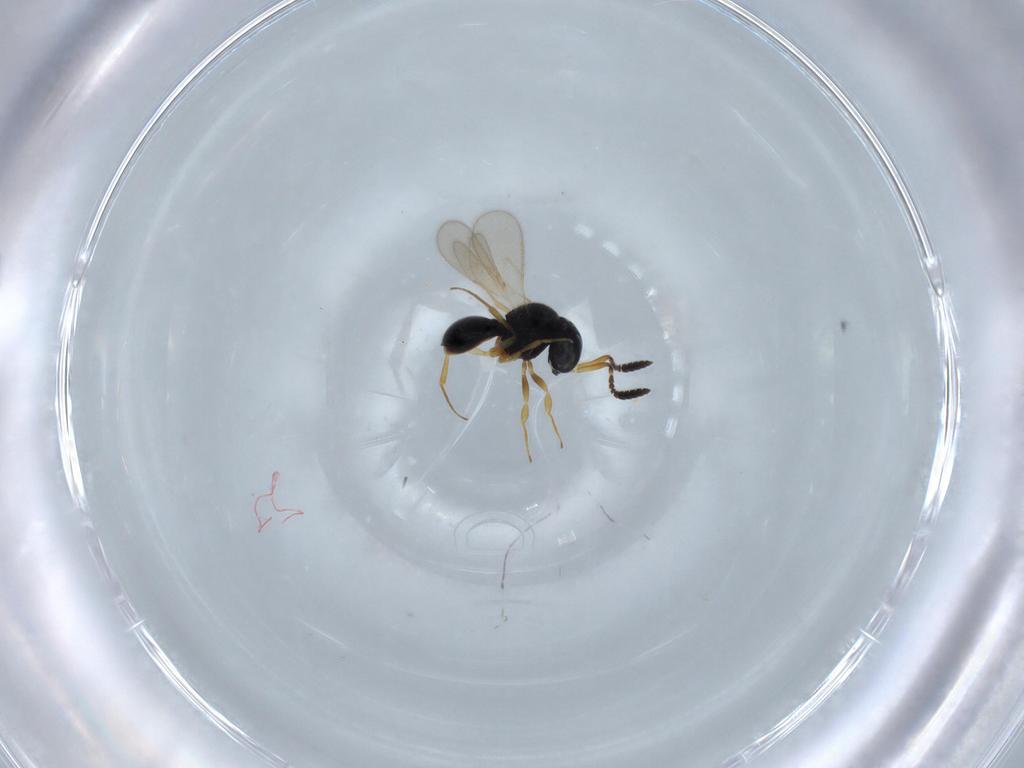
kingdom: Animalia
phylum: Arthropoda
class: Insecta
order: Hymenoptera
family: Scelionidae
